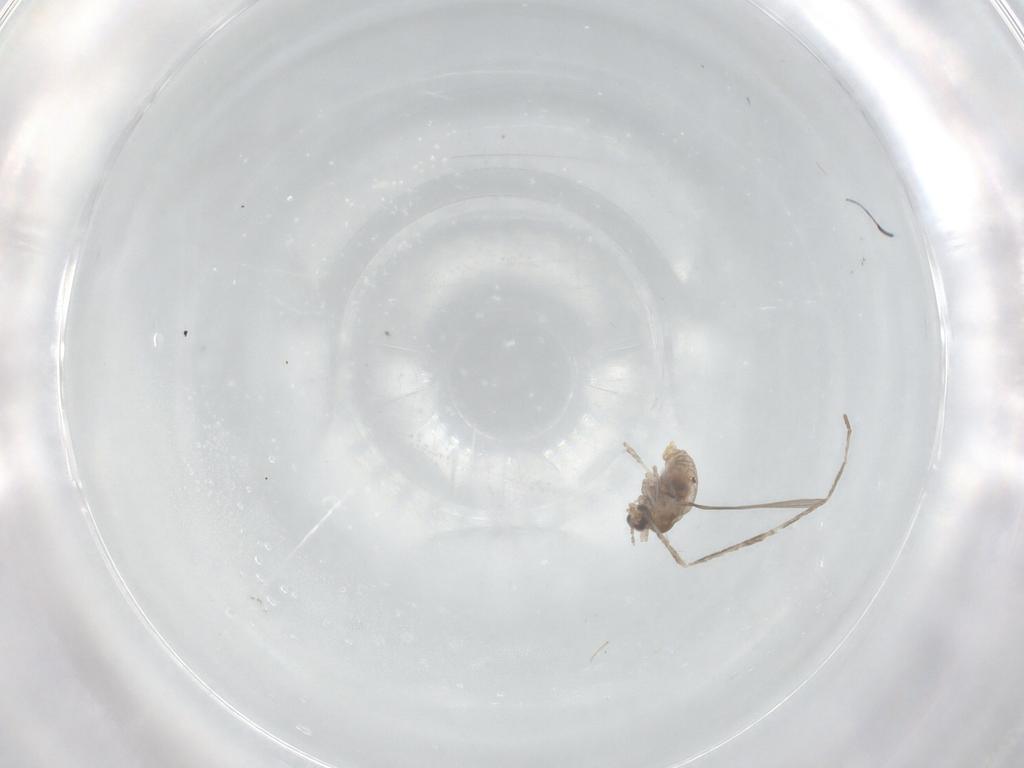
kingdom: Animalia
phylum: Arthropoda
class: Insecta
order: Diptera
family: Cecidomyiidae
